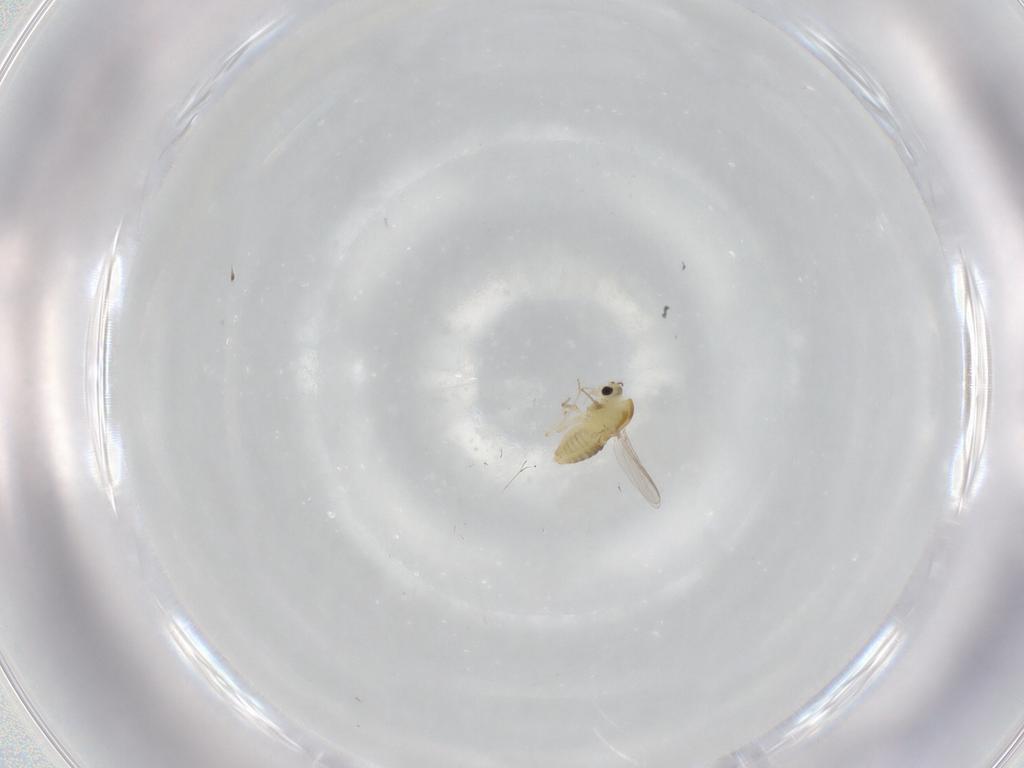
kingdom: Animalia
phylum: Arthropoda
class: Insecta
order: Diptera
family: Chironomidae
